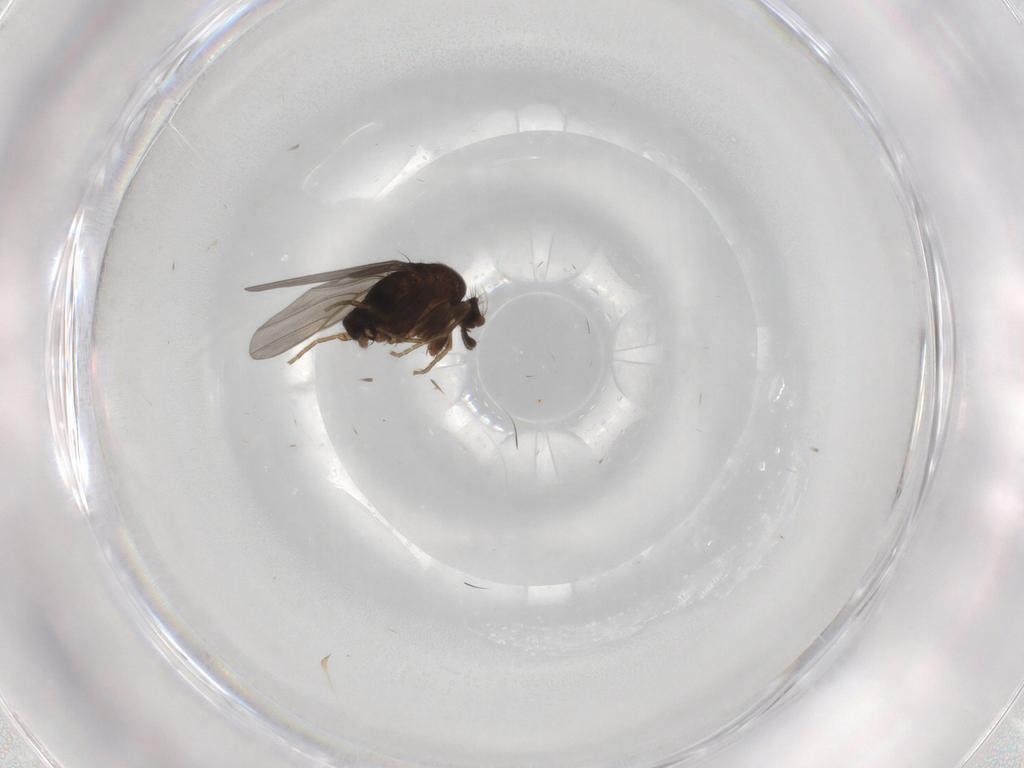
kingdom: Animalia
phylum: Arthropoda
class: Insecta
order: Diptera
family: Phoridae
